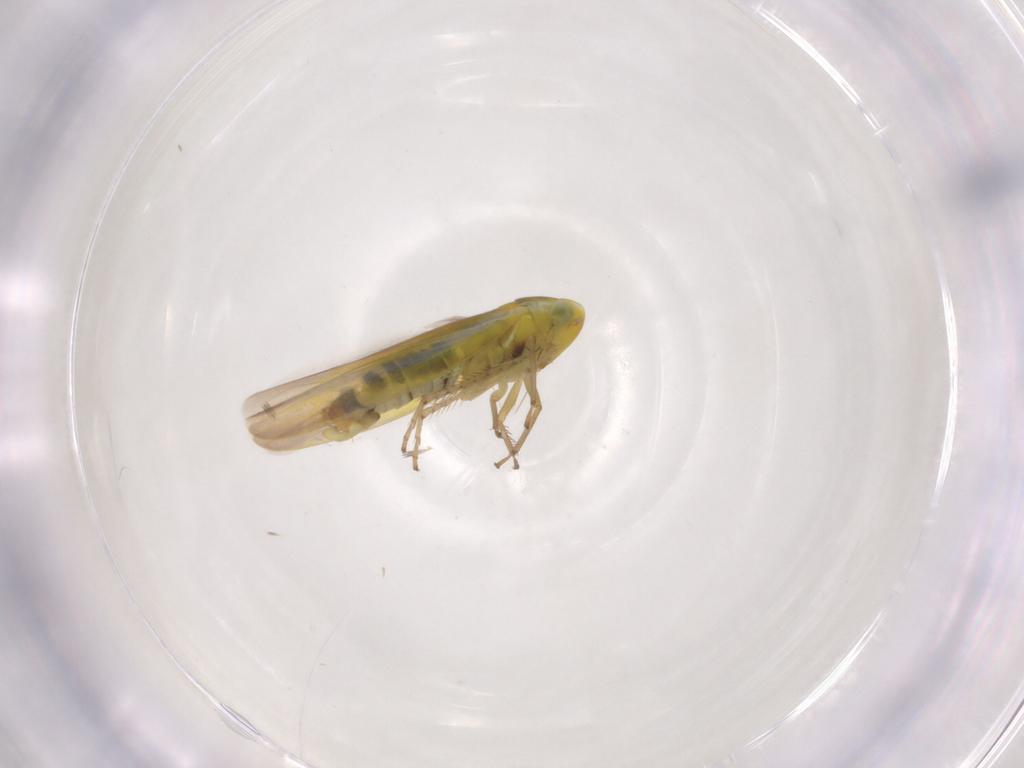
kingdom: Animalia
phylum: Arthropoda
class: Insecta
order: Hemiptera
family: Cicadellidae
